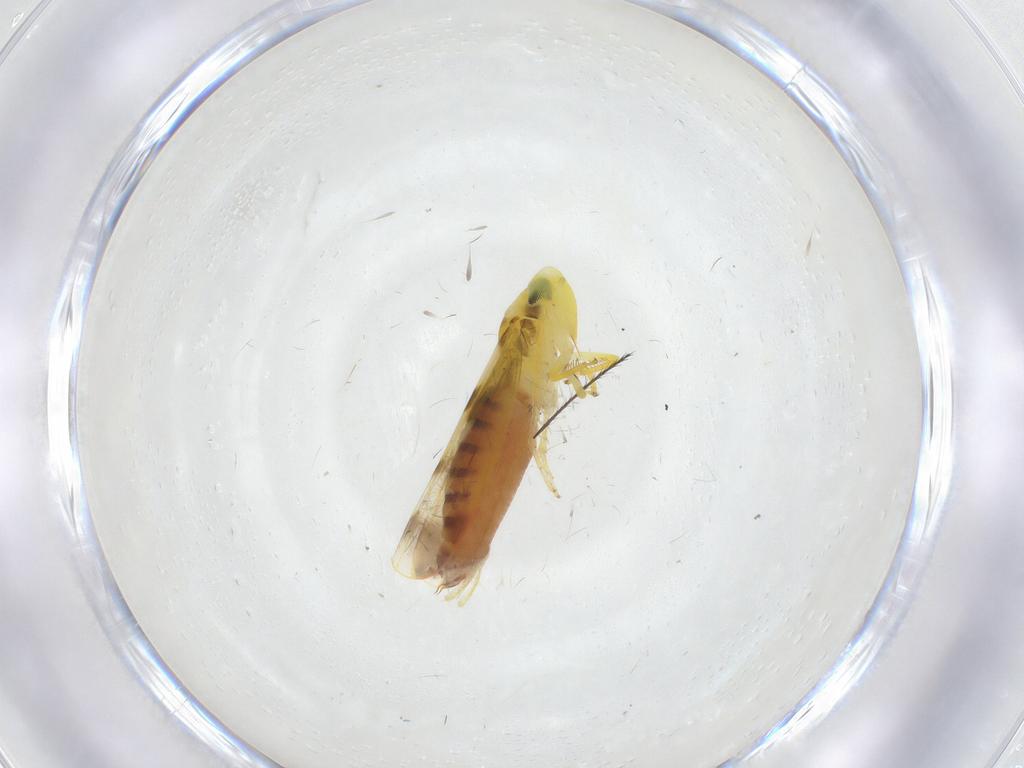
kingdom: Animalia
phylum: Arthropoda
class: Insecta
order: Hemiptera
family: Cicadellidae
